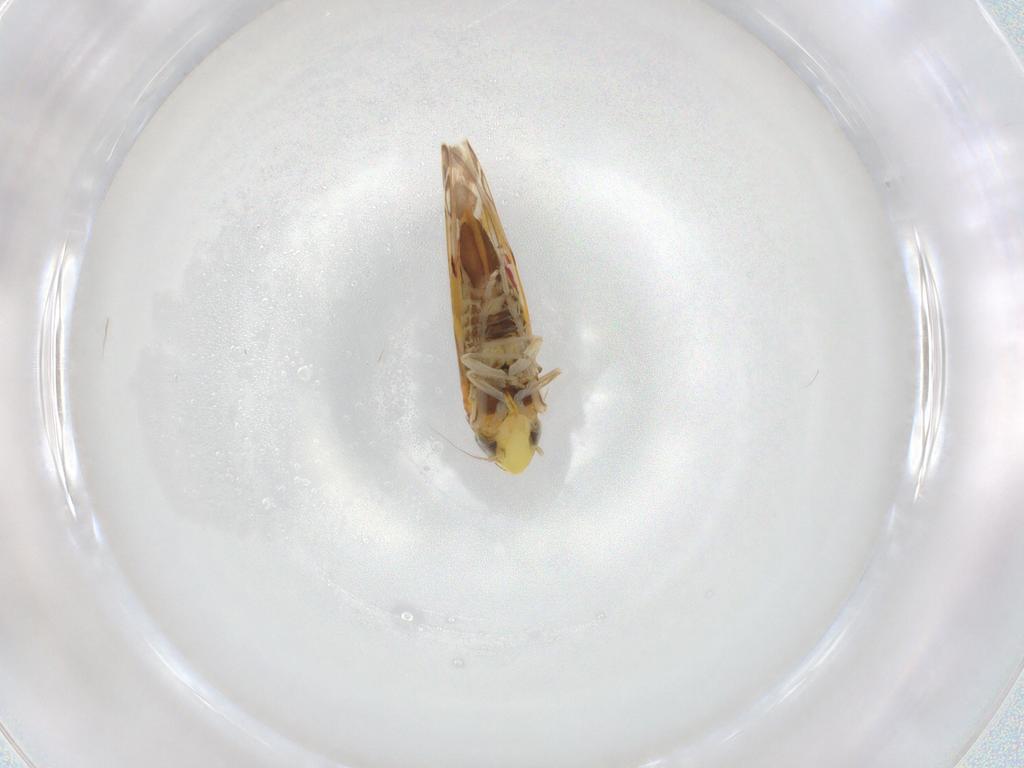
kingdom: Animalia
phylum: Arthropoda
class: Insecta
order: Hemiptera
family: Cicadellidae
